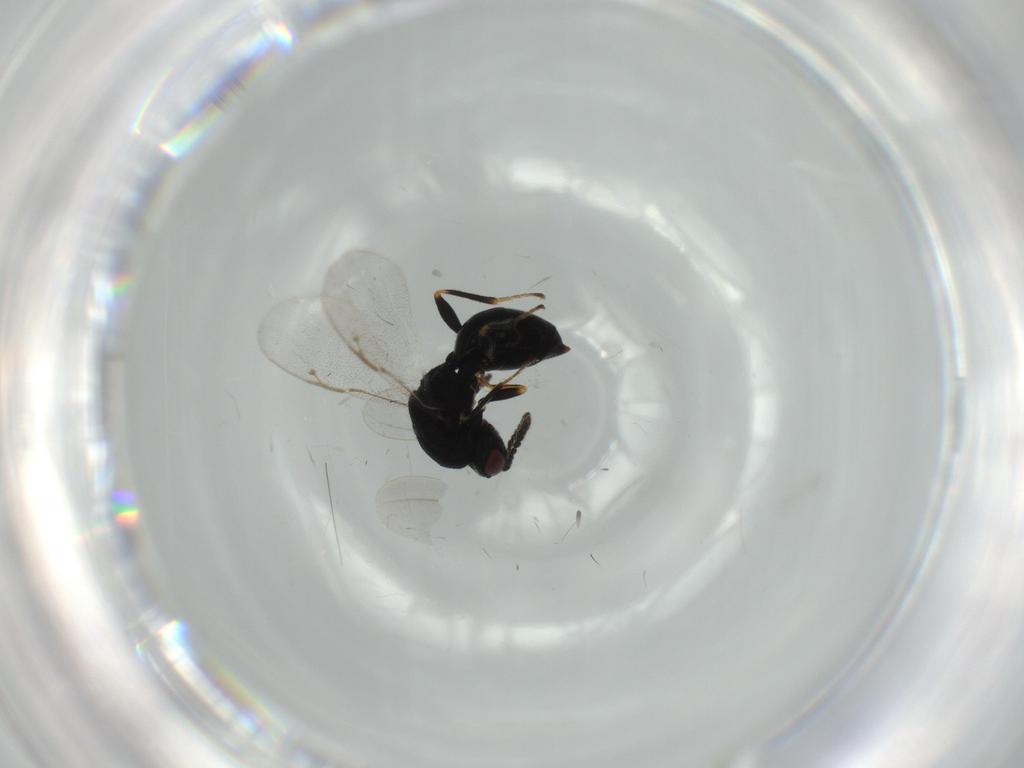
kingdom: Animalia
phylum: Arthropoda
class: Insecta
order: Hymenoptera
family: Eurytomidae
